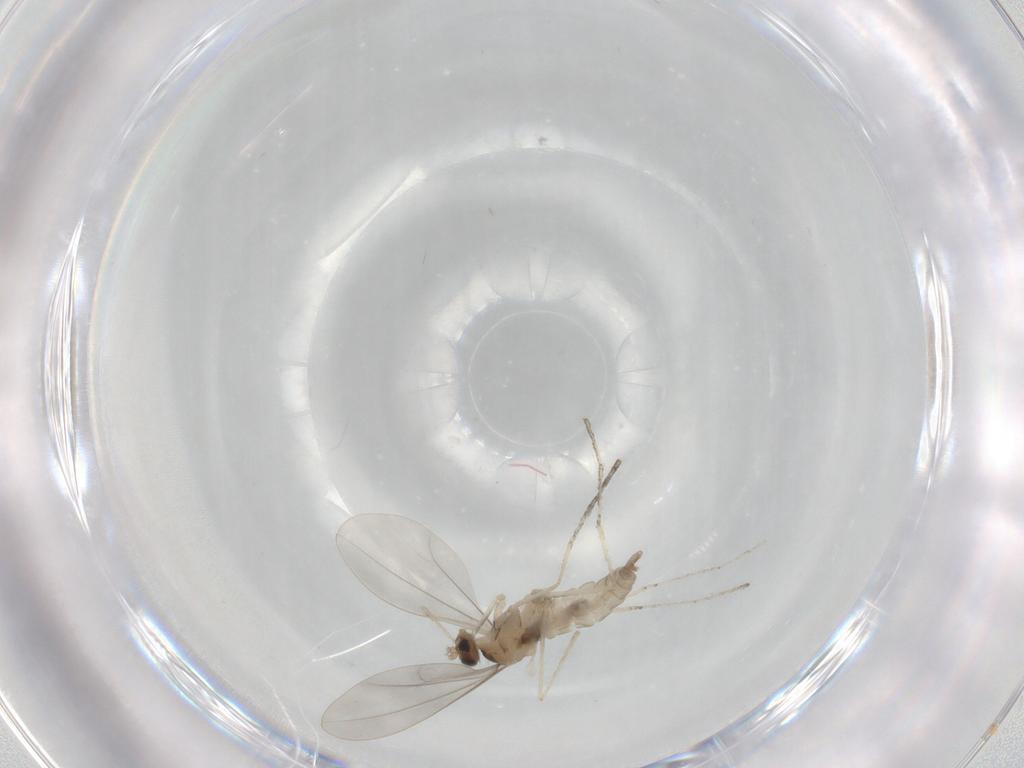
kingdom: Animalia
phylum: Arthropoda
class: Insecta
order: Diptera
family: Cecidomyiidae
